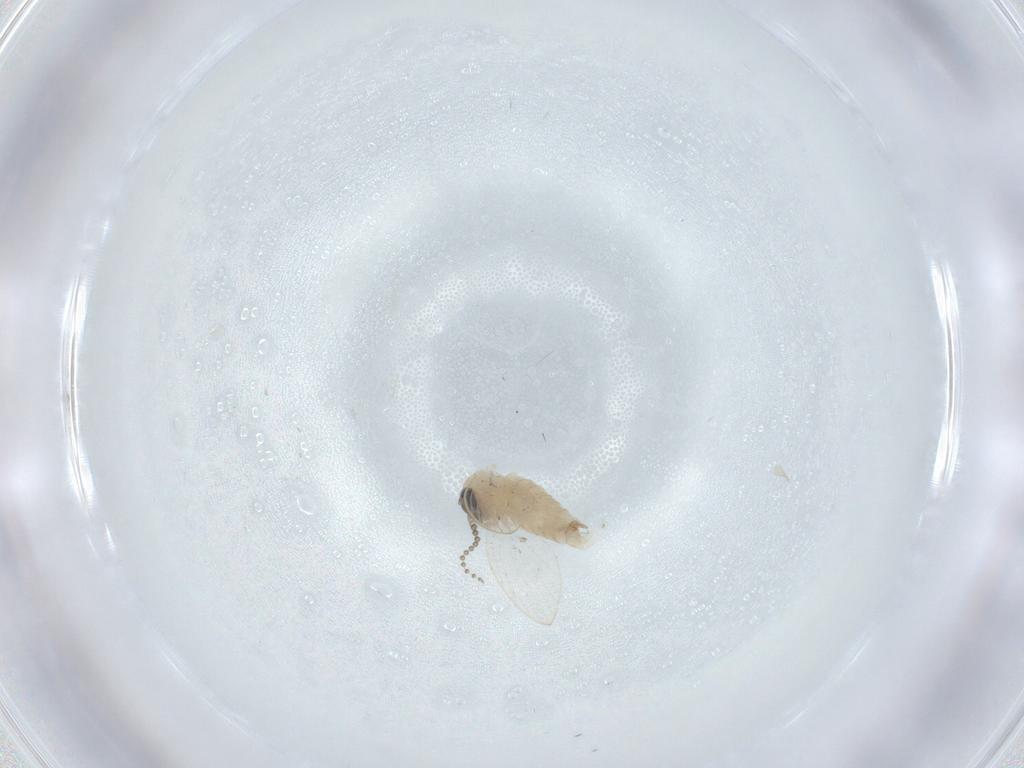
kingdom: Animalia
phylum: Arthropoda
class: Insecta
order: Diptera
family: Psychodidae
